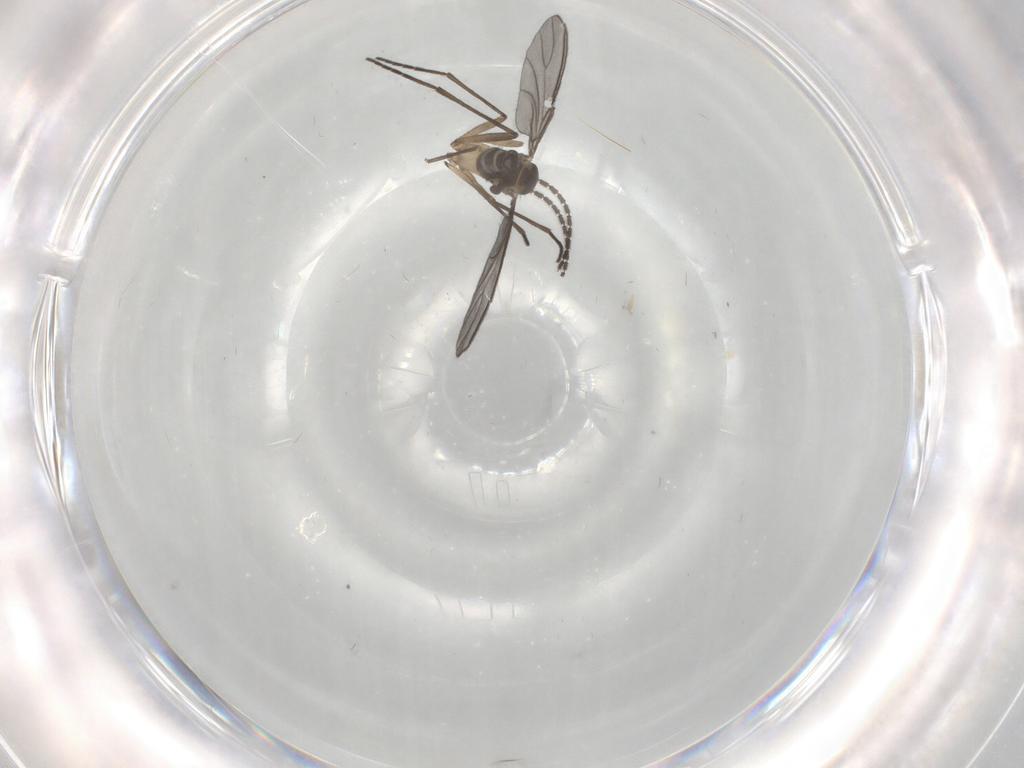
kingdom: Animalia
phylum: Arthropoda
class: Insecta
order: Diptera
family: Sciaridae
